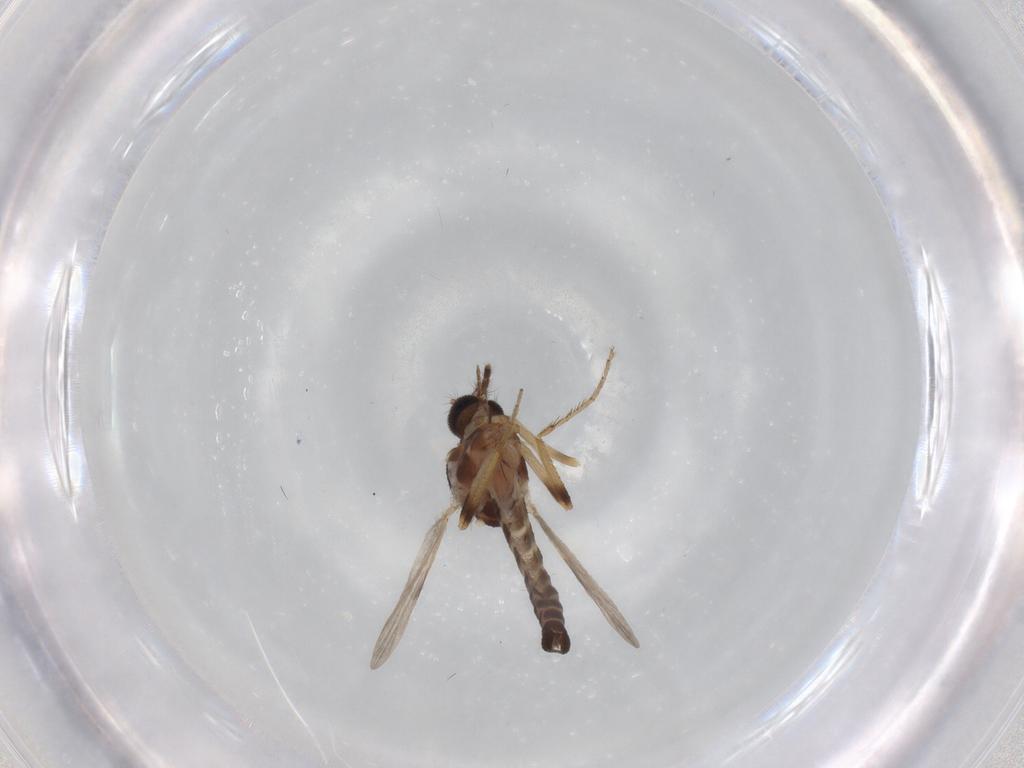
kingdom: Animalia
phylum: Arthropoda
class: Insecta
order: Diptera
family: Ceratopogonidae
